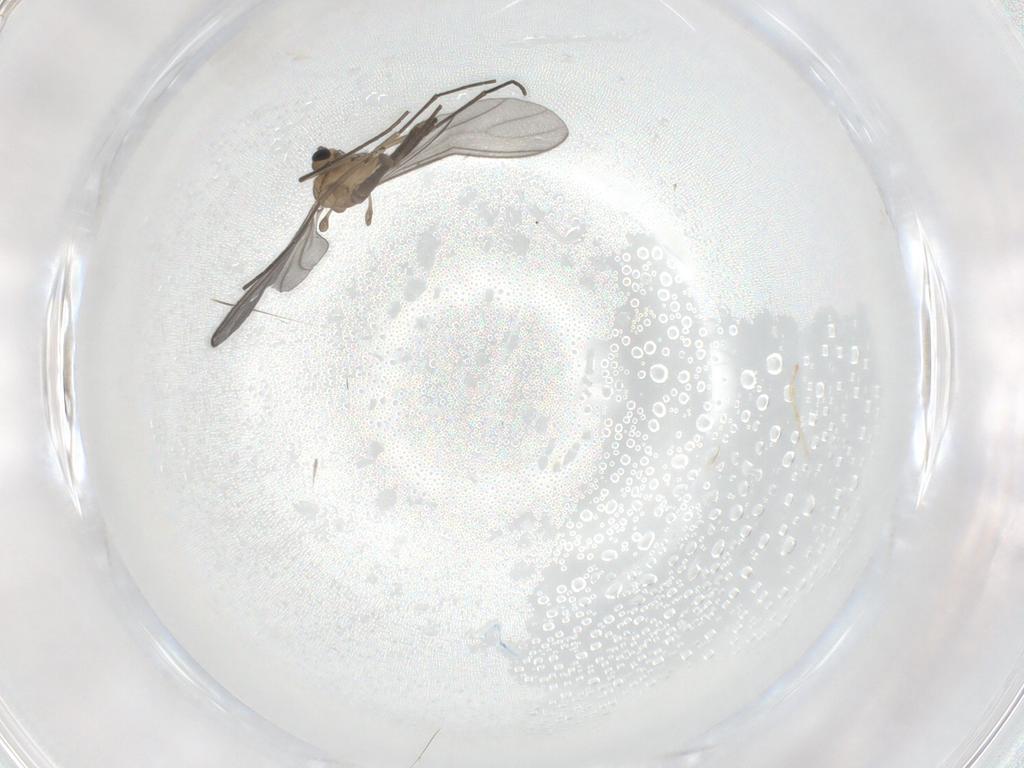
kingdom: Animalia
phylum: Arthropoda
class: Insecta
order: Diptera
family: Sciaridae
